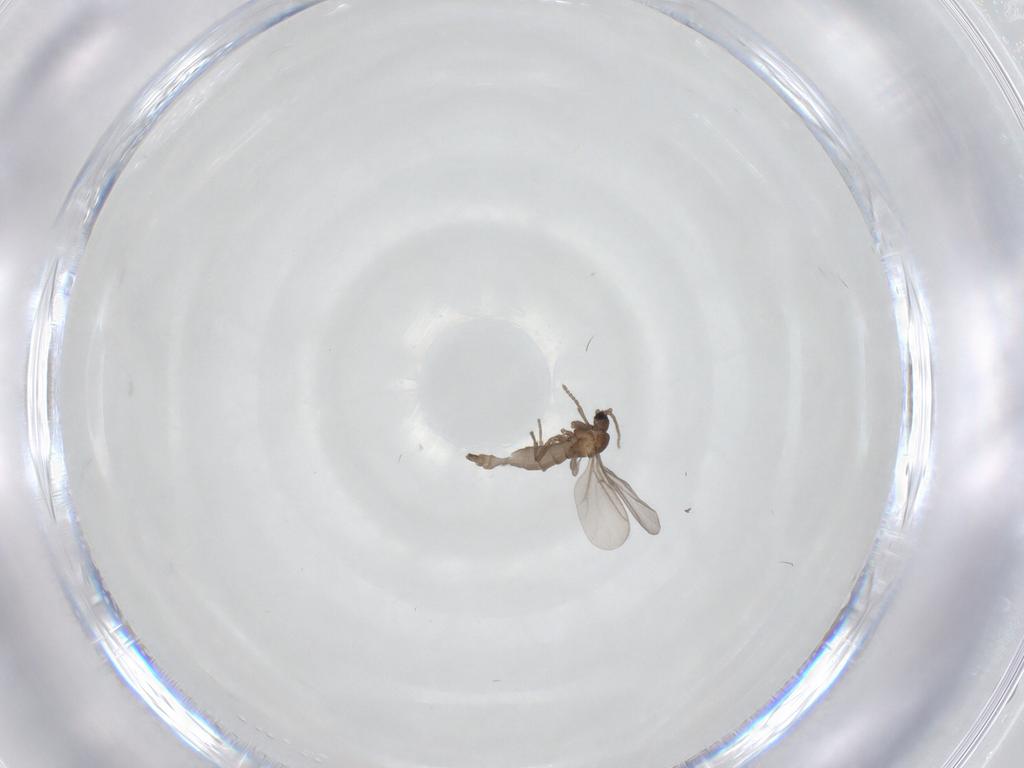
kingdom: Animalia
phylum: Arthropoda
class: Insecta
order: Diptera
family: Sciaridae
